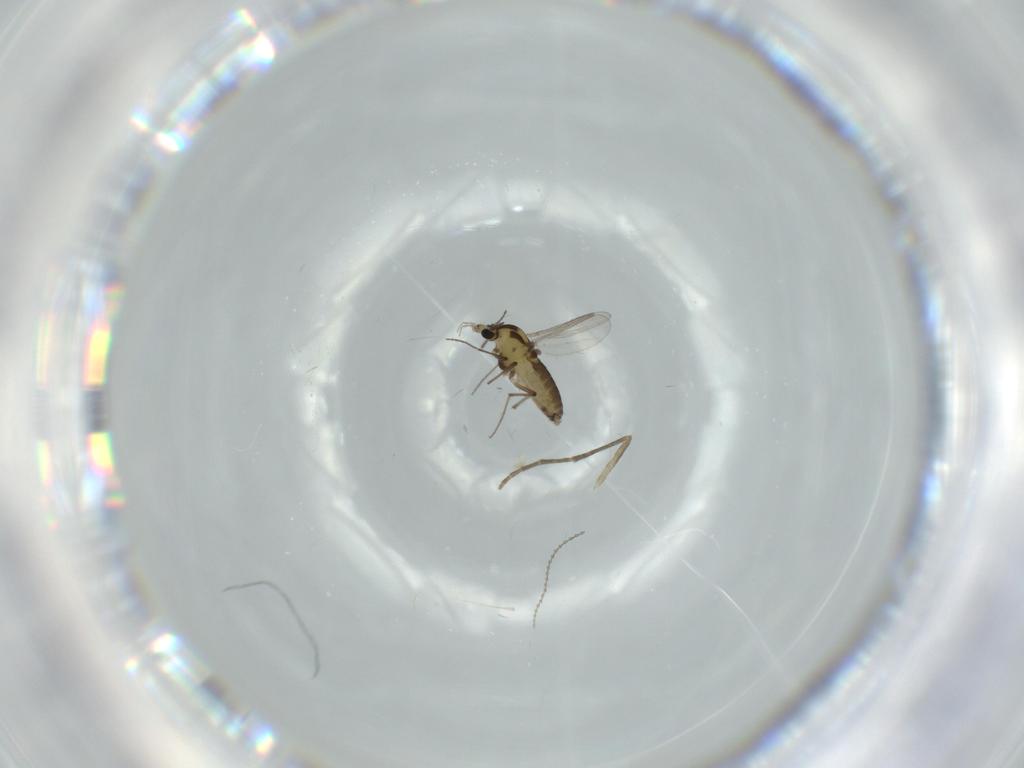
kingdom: Animalia
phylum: Arthropoda
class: Insecta
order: Diptera
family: Chironomidae
